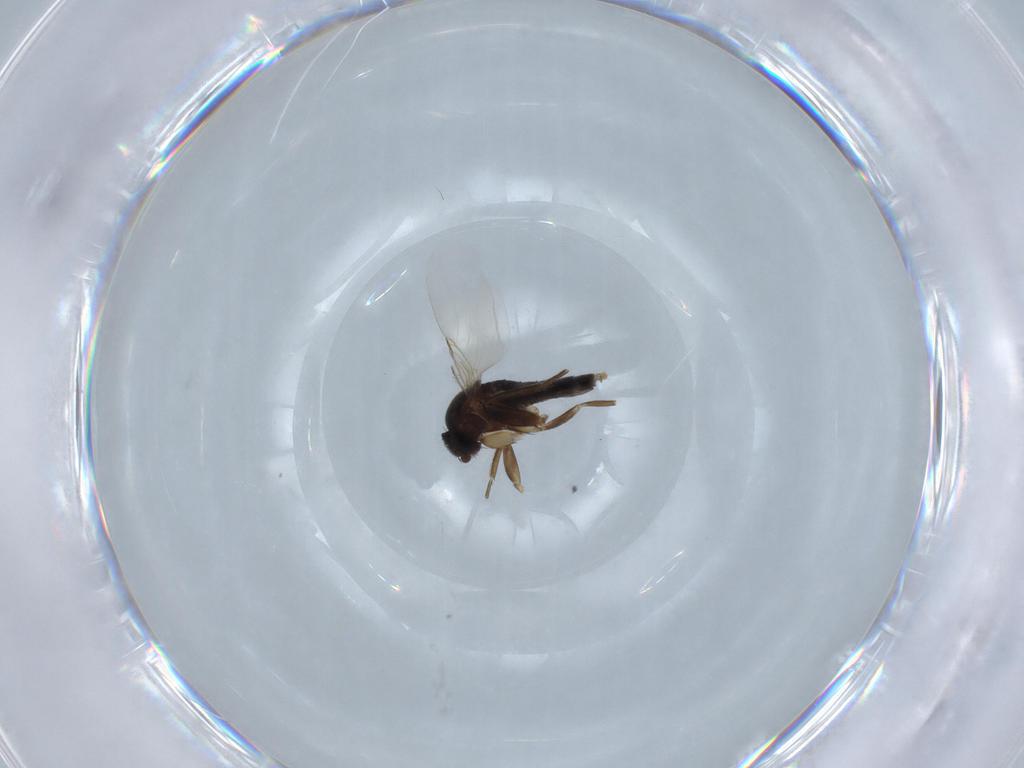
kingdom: Animalia
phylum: Arthropoda
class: Insecta
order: Diptera
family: Phoridae
